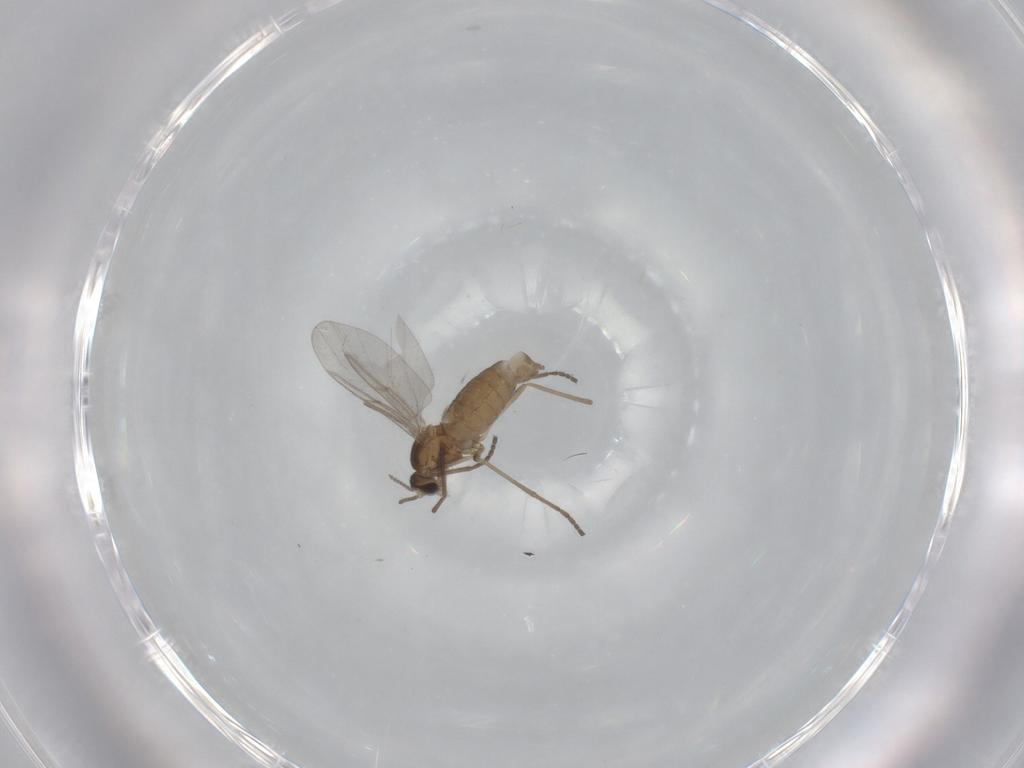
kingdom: Animalia
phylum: Arthropoda
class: Insecta
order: Diptera
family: Cecidomyiidae
